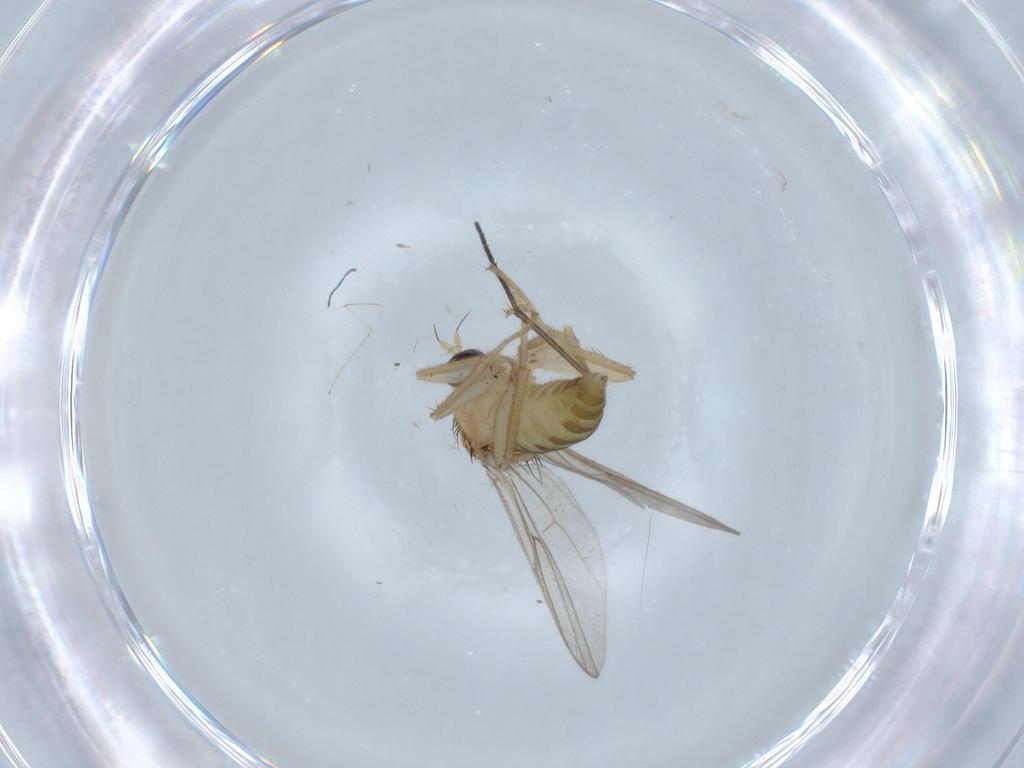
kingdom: Animalia
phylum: Arthropoda
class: Insecta
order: Diptera
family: Hybotidae
